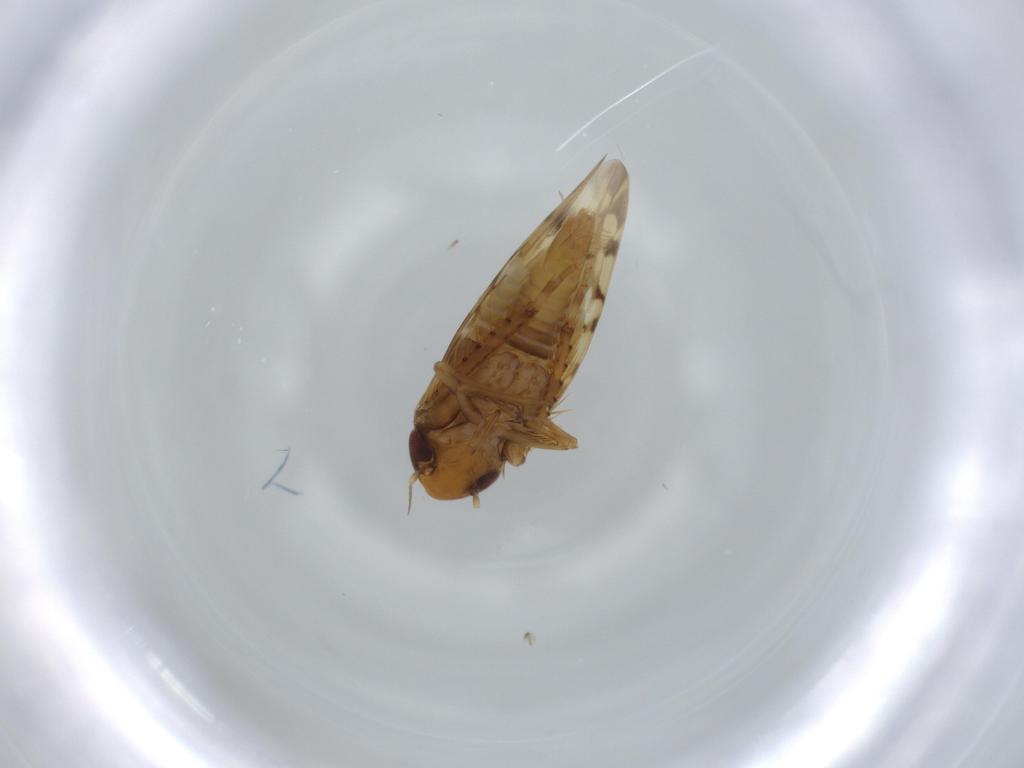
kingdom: Animalia
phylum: Arthropoda
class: Insecta
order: Hemiptera
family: Cicadellidae
